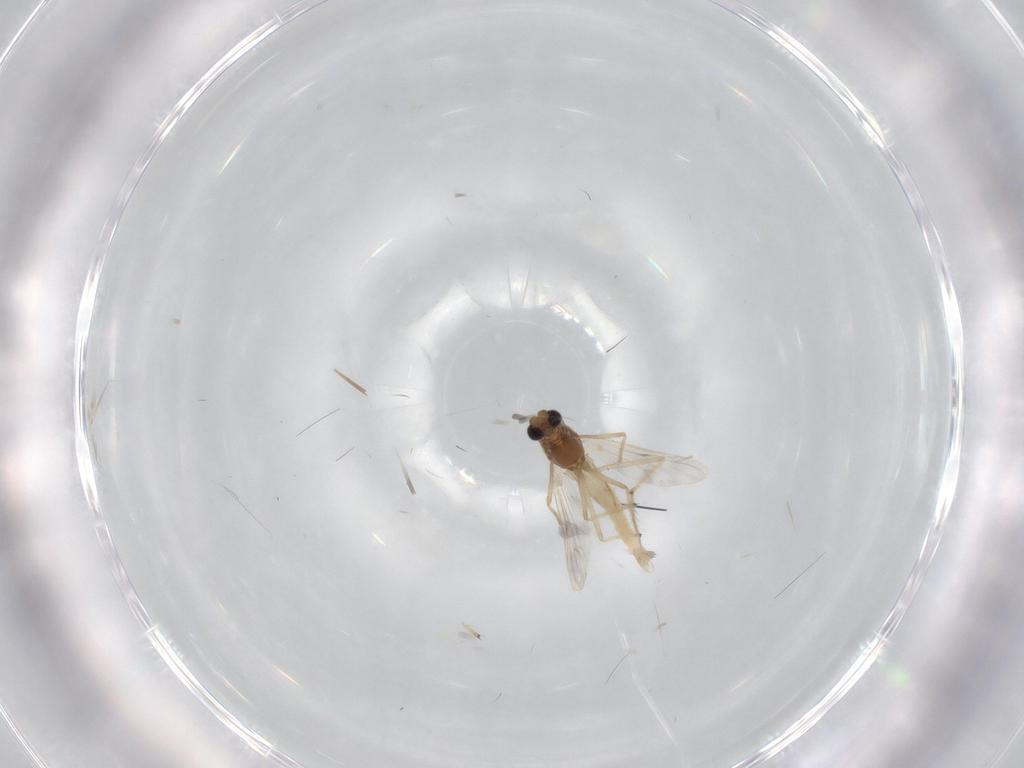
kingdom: Animalia
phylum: Arthropoda
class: Insecta
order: Diptera
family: Chironomidae
